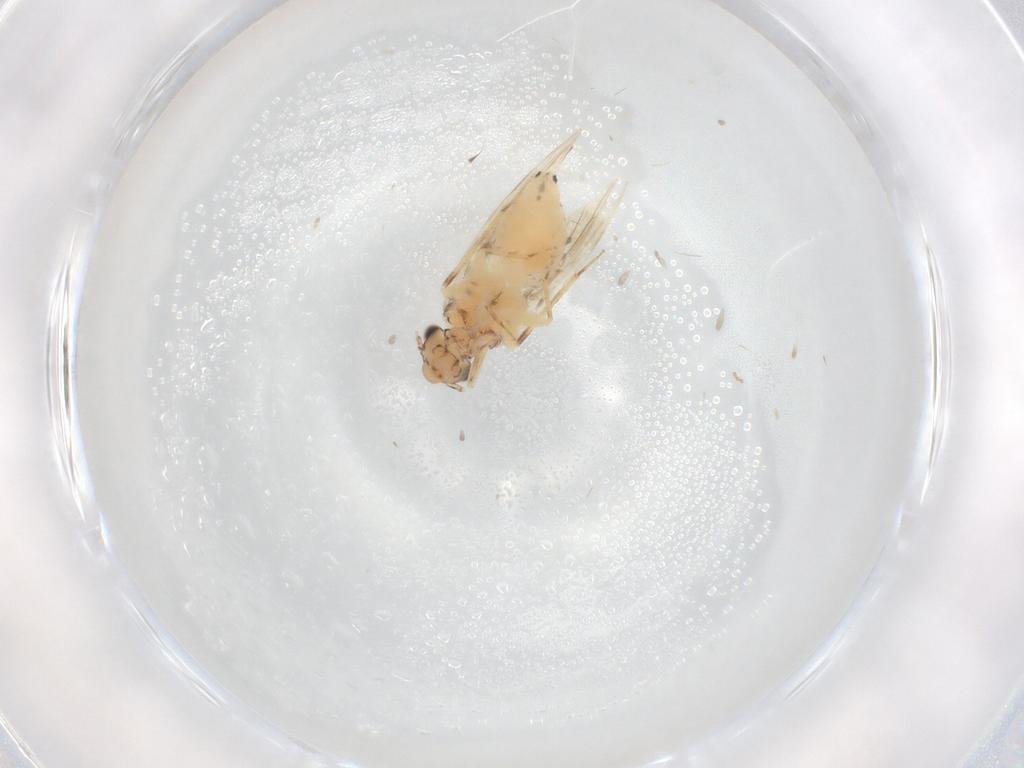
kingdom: Animalia
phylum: Arthropoda
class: Insecta
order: Psocodea
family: Lepidopsocidae
